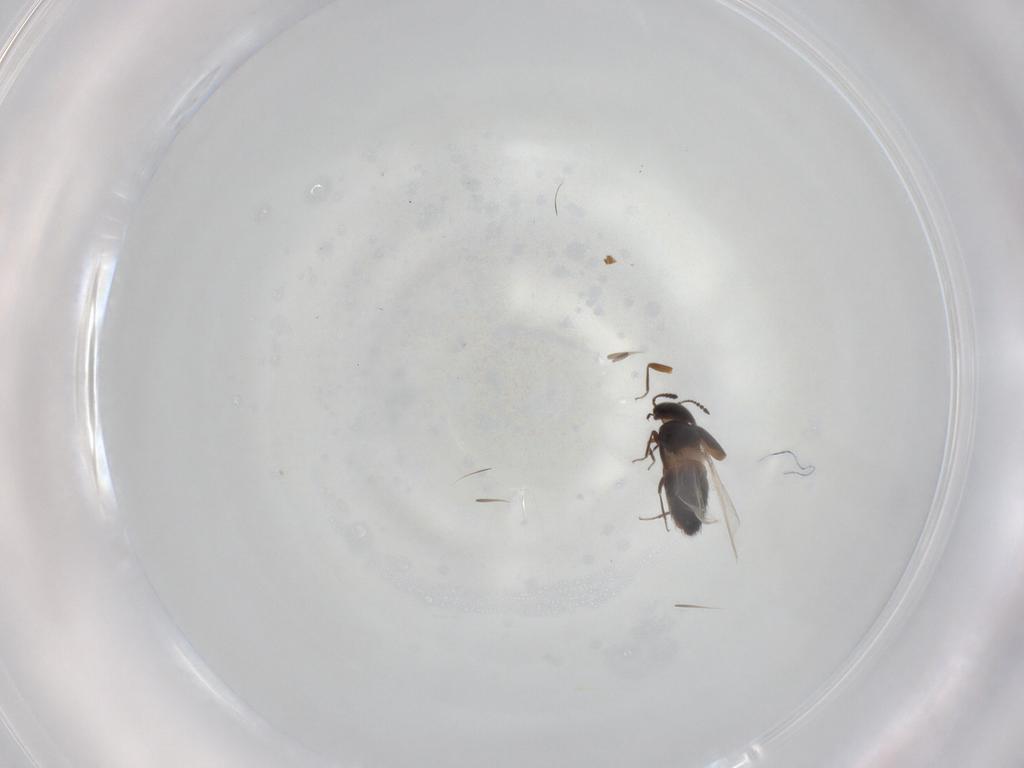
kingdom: Animalia
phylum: Arthropoda
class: Insecta
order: Coleoptera
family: Staphylinidae
